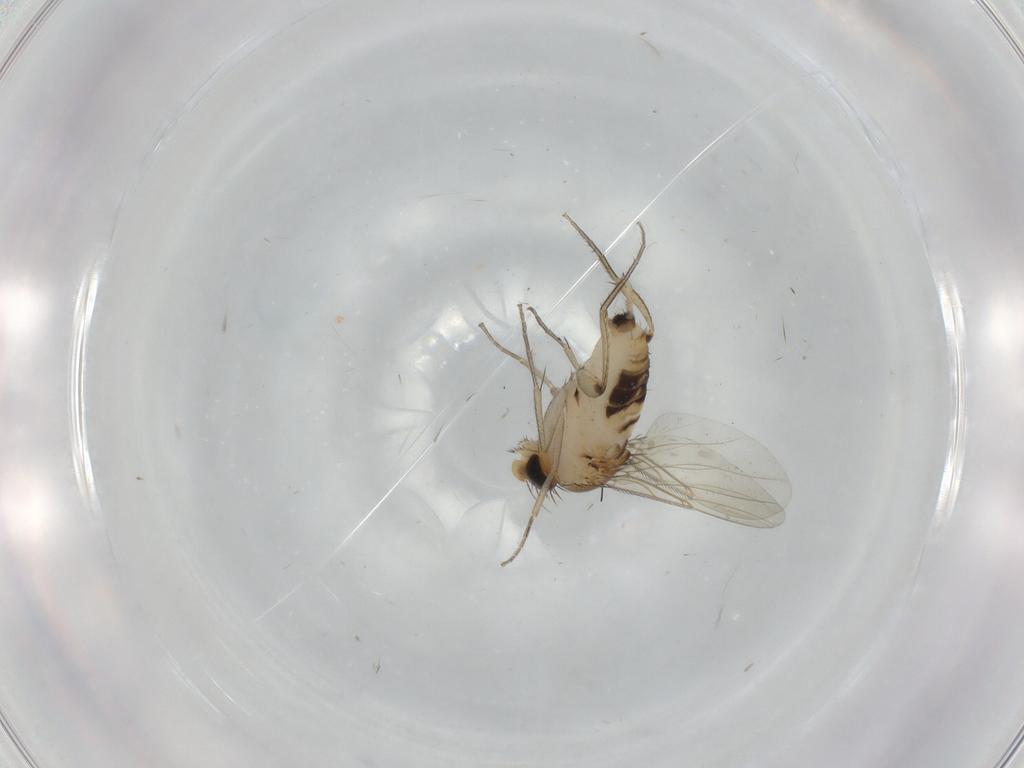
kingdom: Animalia
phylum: Arthropoda
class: Insecta
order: Diptera
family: Phoridae
